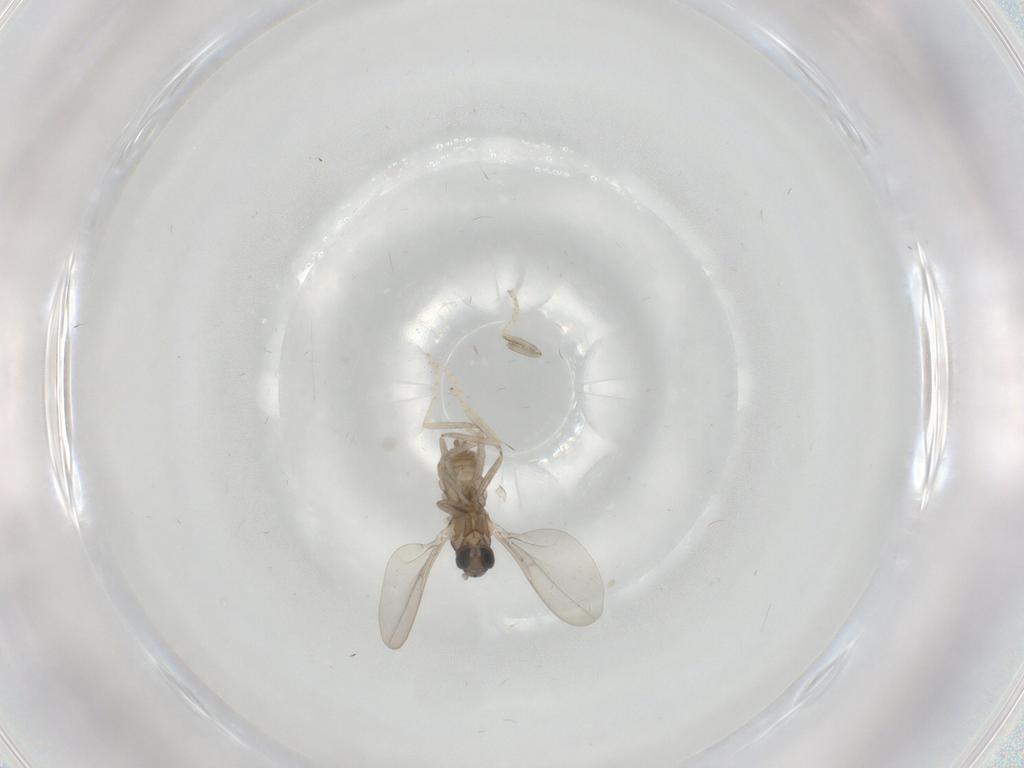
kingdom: Animalia
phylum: Arthropoda
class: Insecta
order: Diptera
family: Cecidomyiidae
